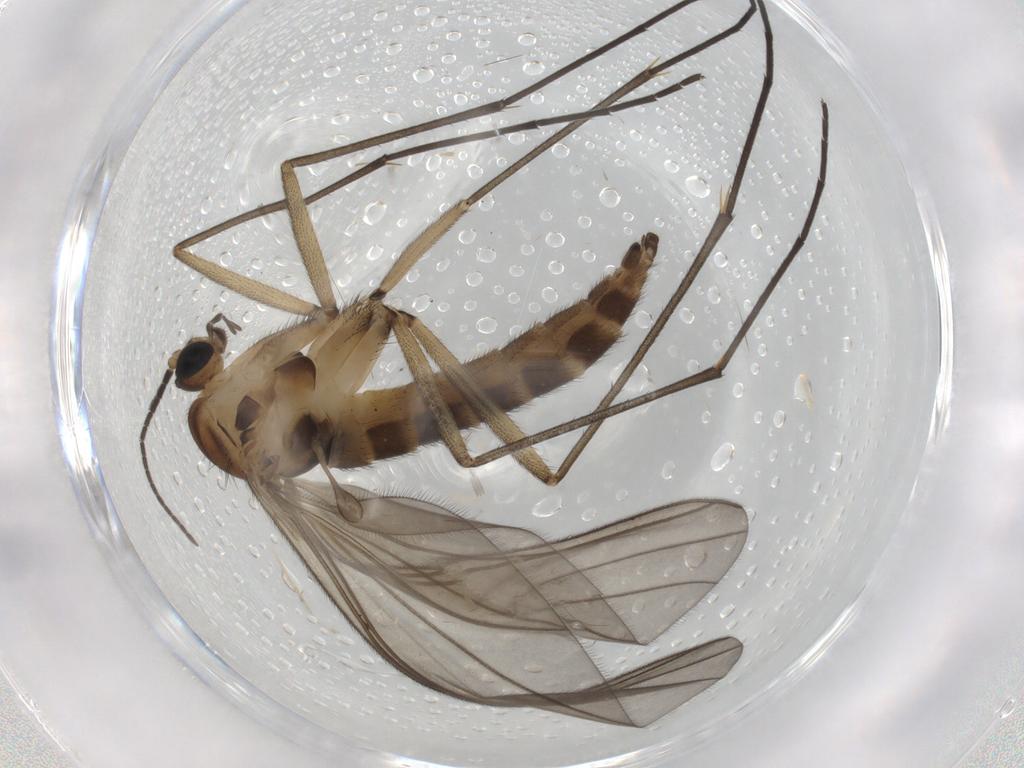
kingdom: Animalia
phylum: Arthropoda
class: Insecta
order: Diptera
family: Sciaridae
